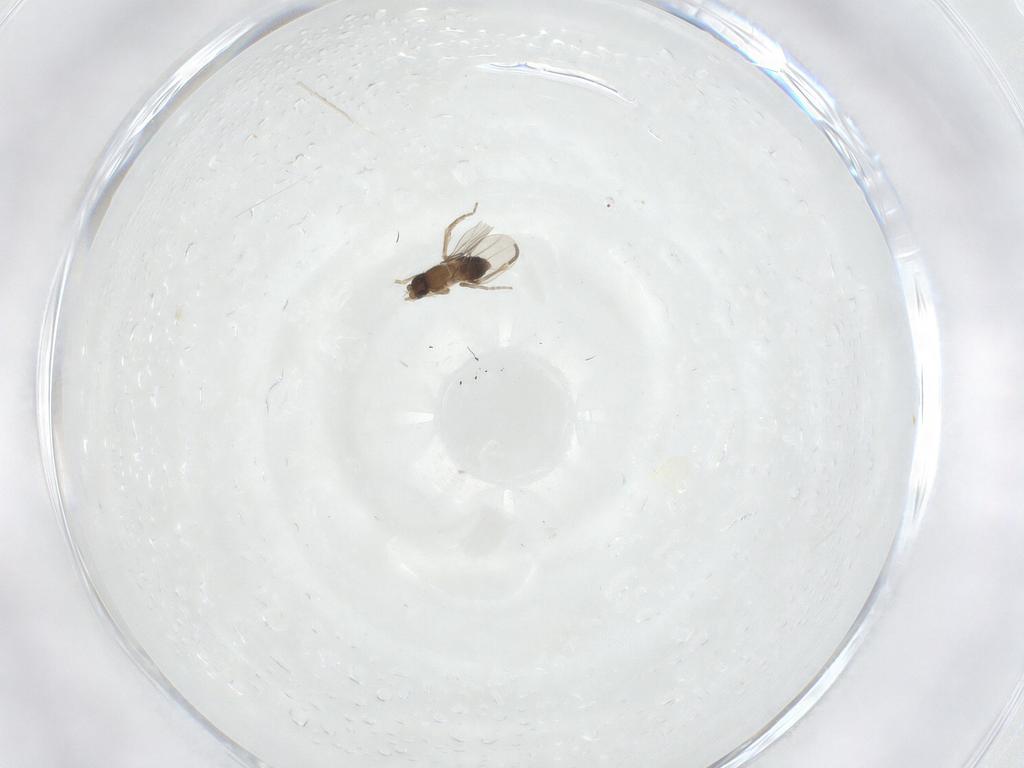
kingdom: Animalia
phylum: Arthropoda
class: Insecta
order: Diptera
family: Phoridae
